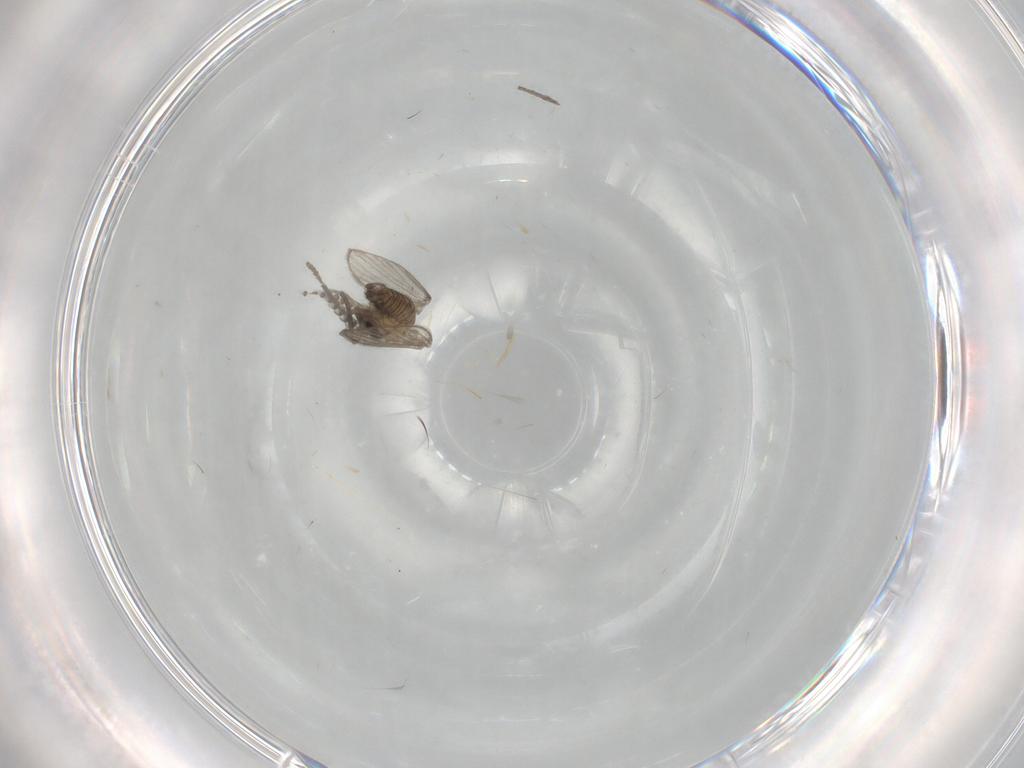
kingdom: Animalia
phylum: Arthropoda
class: Insecta
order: Diptera
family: Psychodidae
